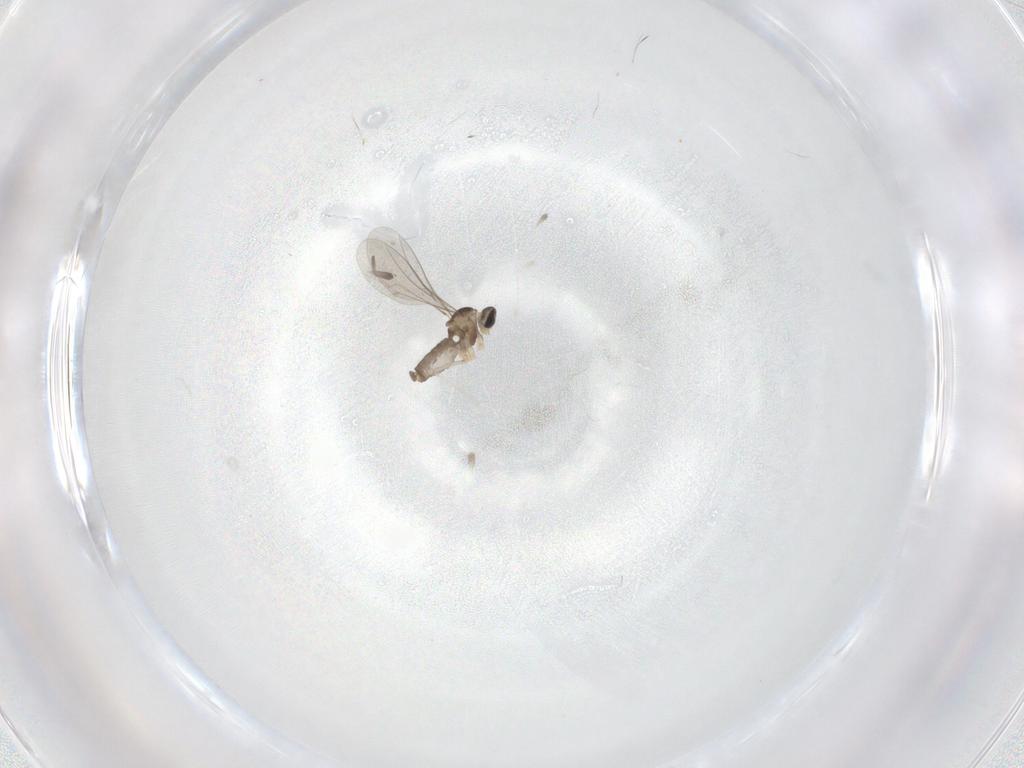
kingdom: Animalia
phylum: Arthropoda
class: Insecta
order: Diptera
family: Cecidomyiidae
